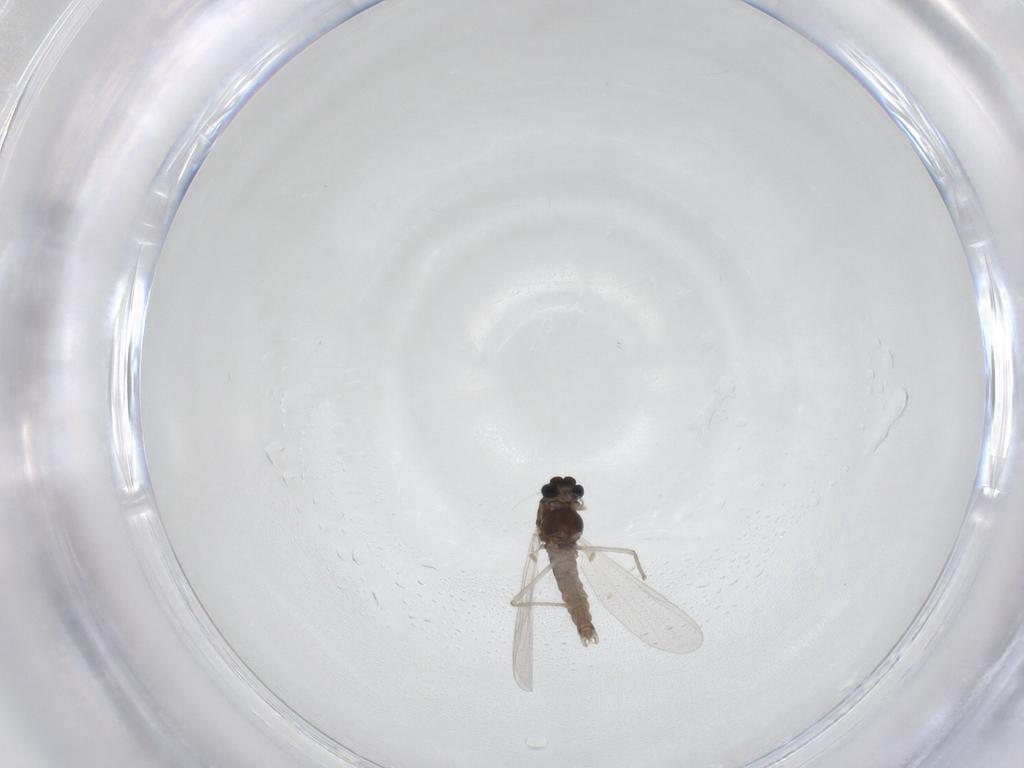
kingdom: Animalia
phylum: Arthropoda
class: Insecta
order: Diptera
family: Chironomidae
